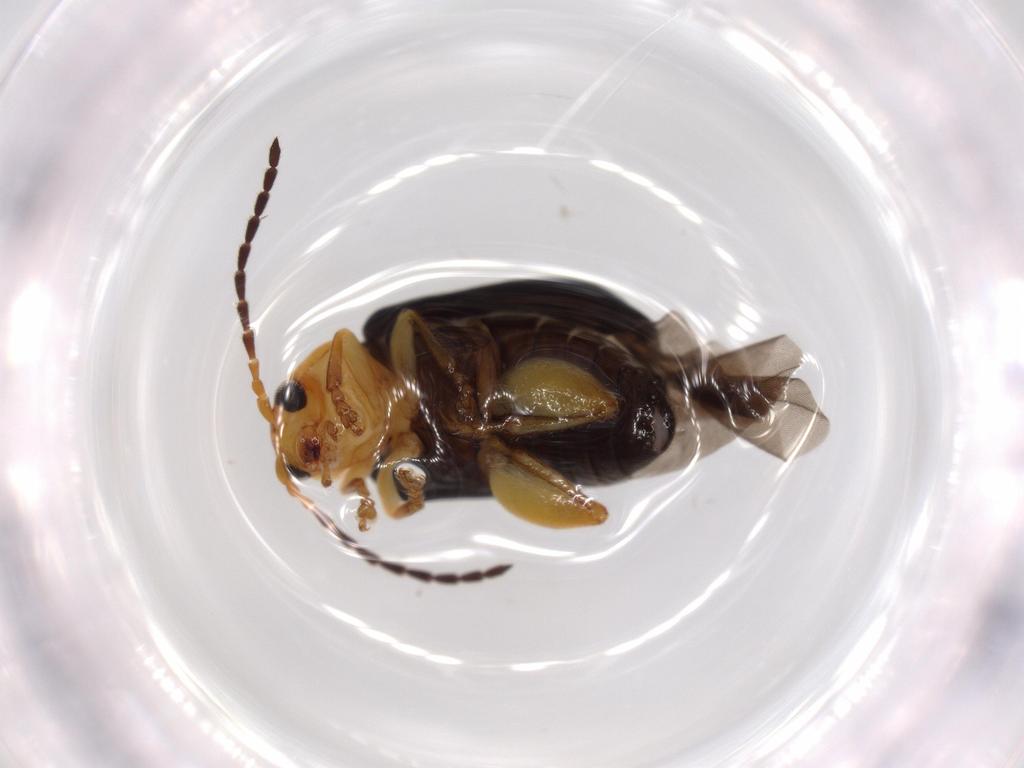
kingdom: Animalia
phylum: Arthropoda
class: Insecta
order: Coleoptera
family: Chrysomelidae
